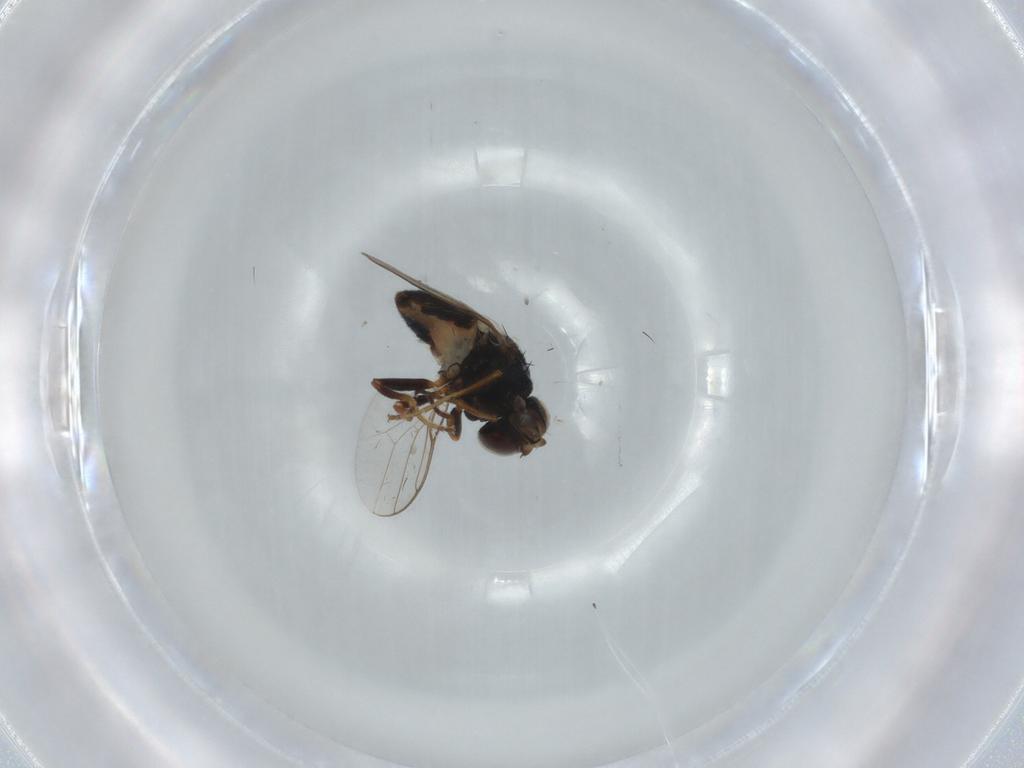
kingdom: Animalia
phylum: Arthropoda
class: Insecta
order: Diptera
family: Chloropidae
